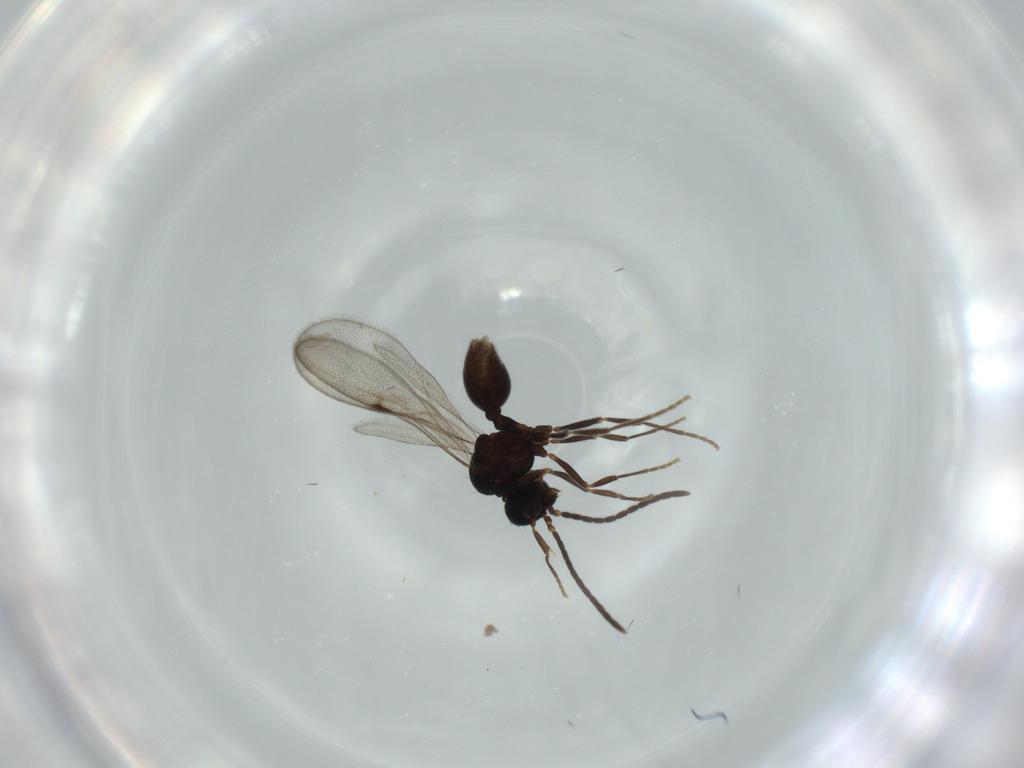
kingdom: Animalia
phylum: Arthropoda
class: Insecta
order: Hymenoptera
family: Formicidae
